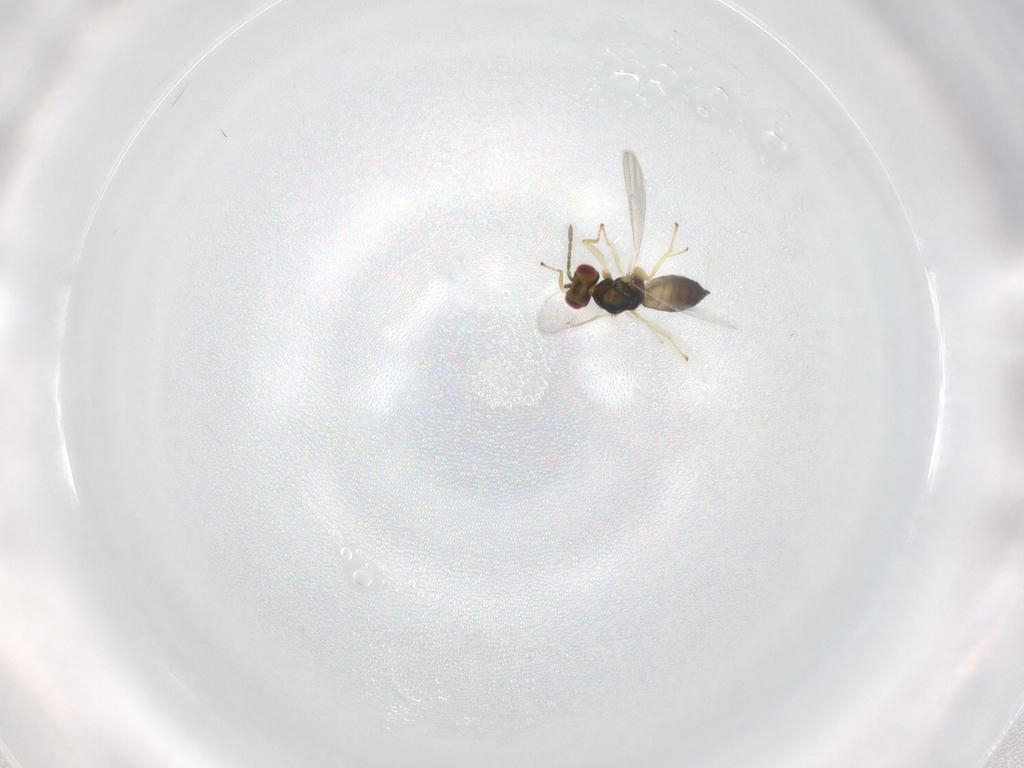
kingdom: Animalia
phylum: Arthropoda
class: Insecta
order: Hymenoptera
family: Eulophidae
